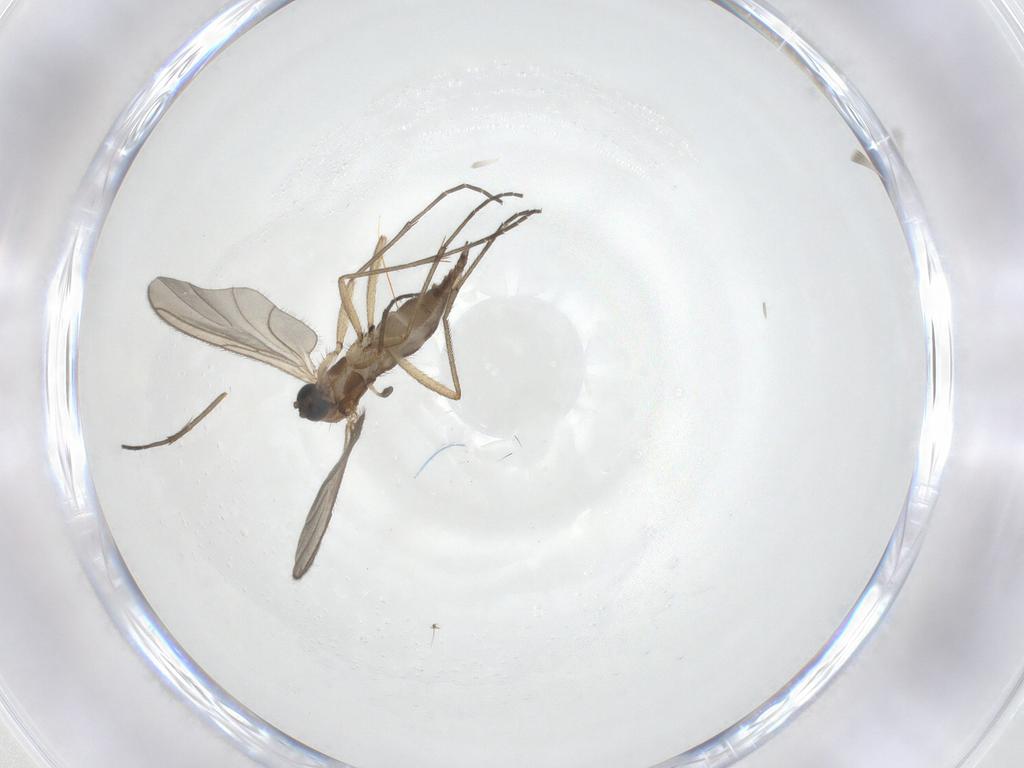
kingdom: Animalia
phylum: Arthropoda
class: Insecta
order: Diptera
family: Sciaridae
